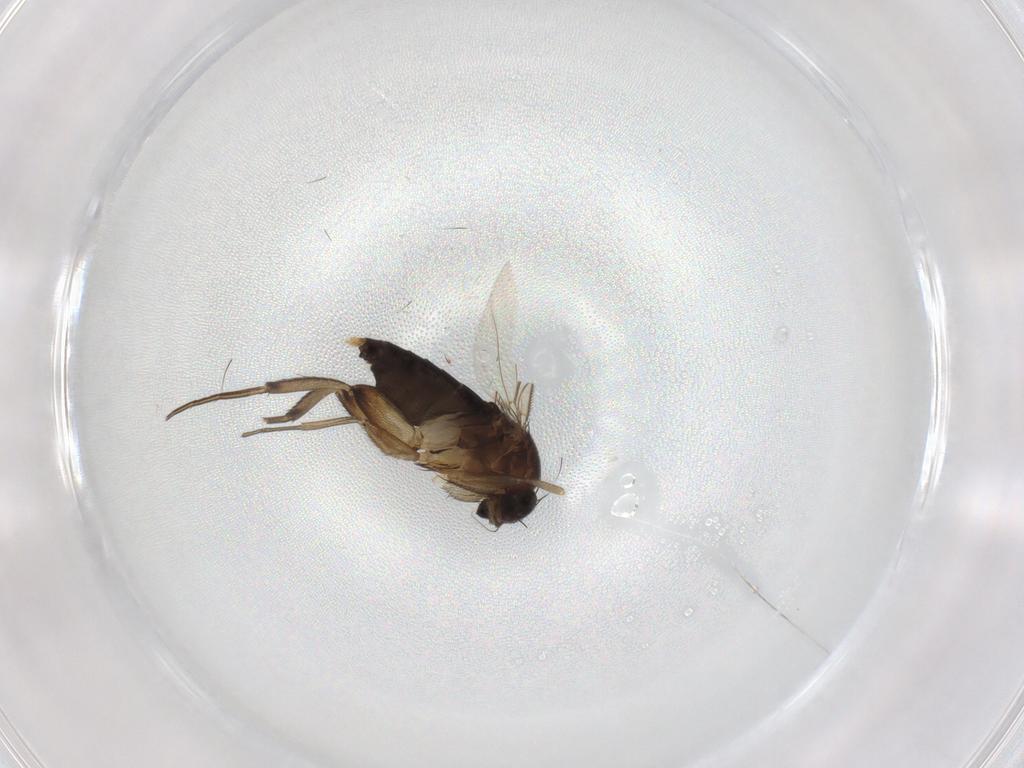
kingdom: Animalia
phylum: Arthropoda
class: Insecta
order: Diptera
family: Phoridae
